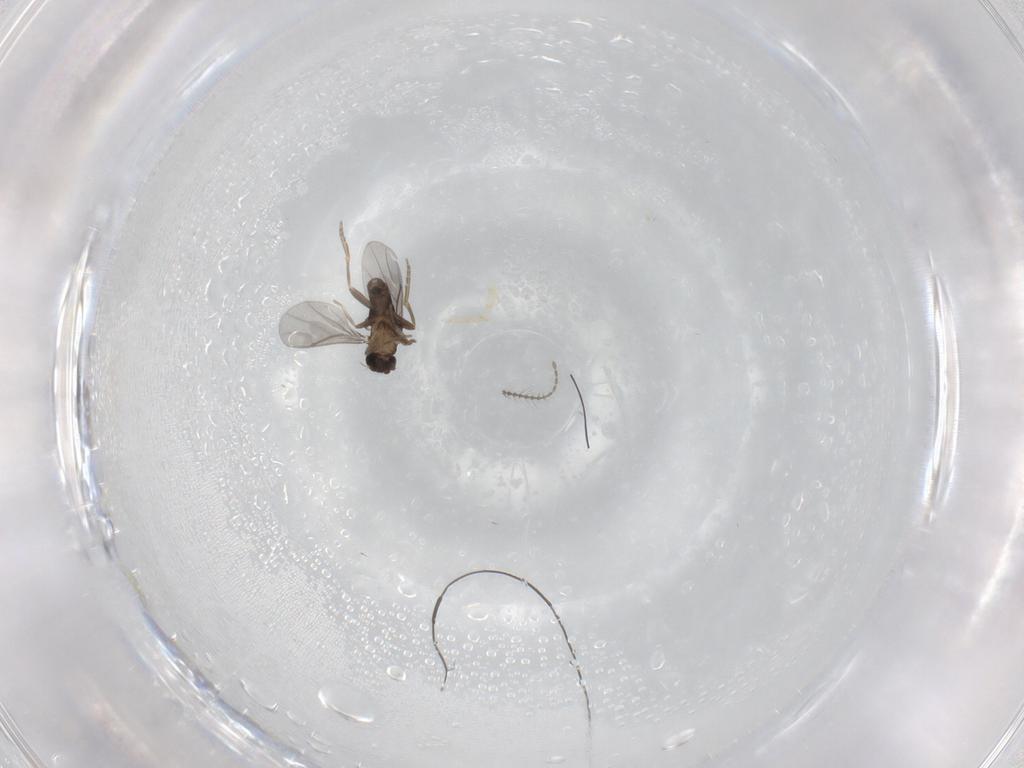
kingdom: Animalia
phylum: Arthropoda
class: Insecta
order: Diptera
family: Ceratopogonidae
